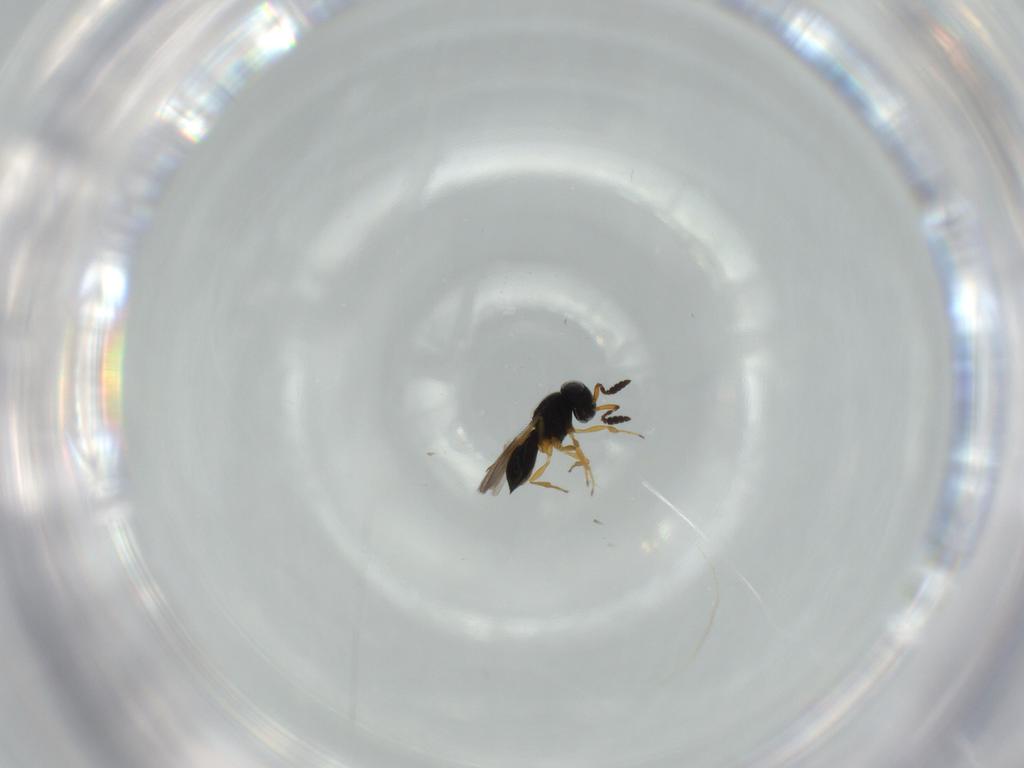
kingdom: Animalia
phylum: Arthropoda
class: Insecta
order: Hymenoptera
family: Scelionidae
